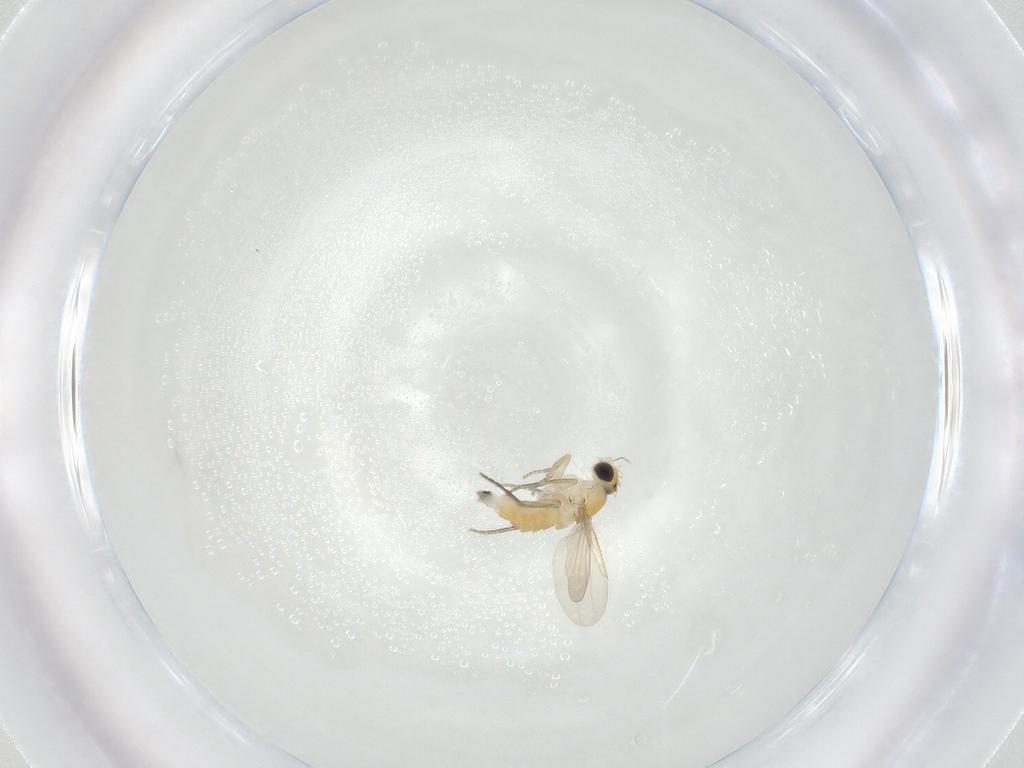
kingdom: Animalia
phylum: Arthropoda
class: Insecta
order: Diptera
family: Phoridae
